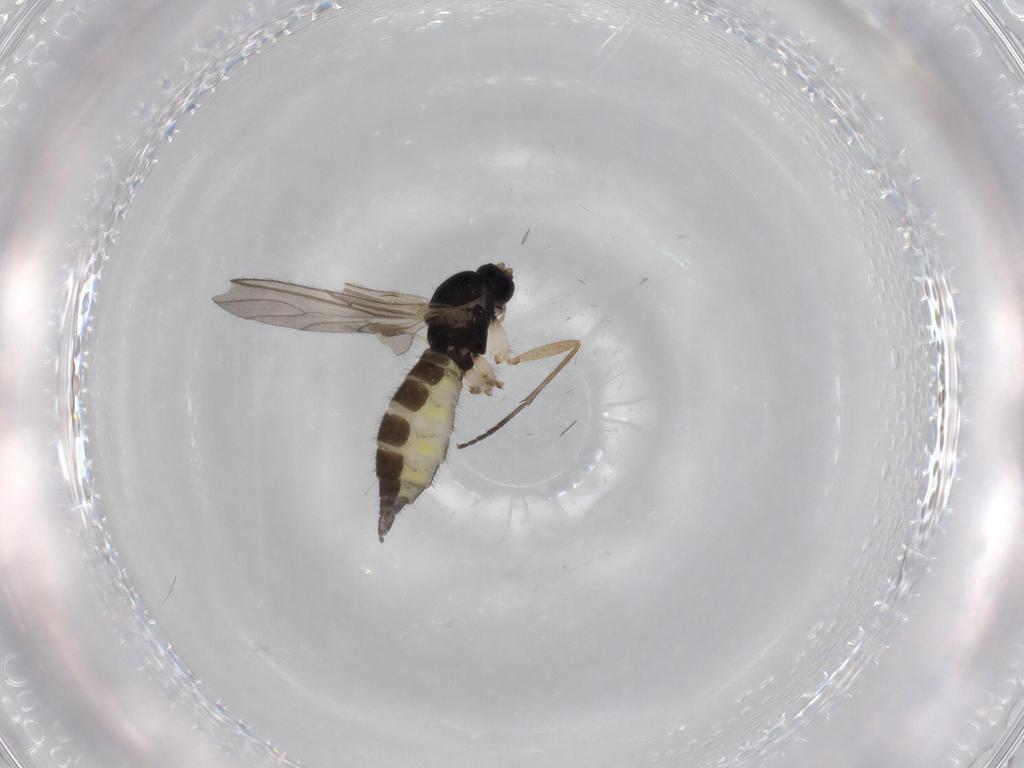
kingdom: Animalia
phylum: Arthropoda
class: Insecta
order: Diptera
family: Sciaridae
